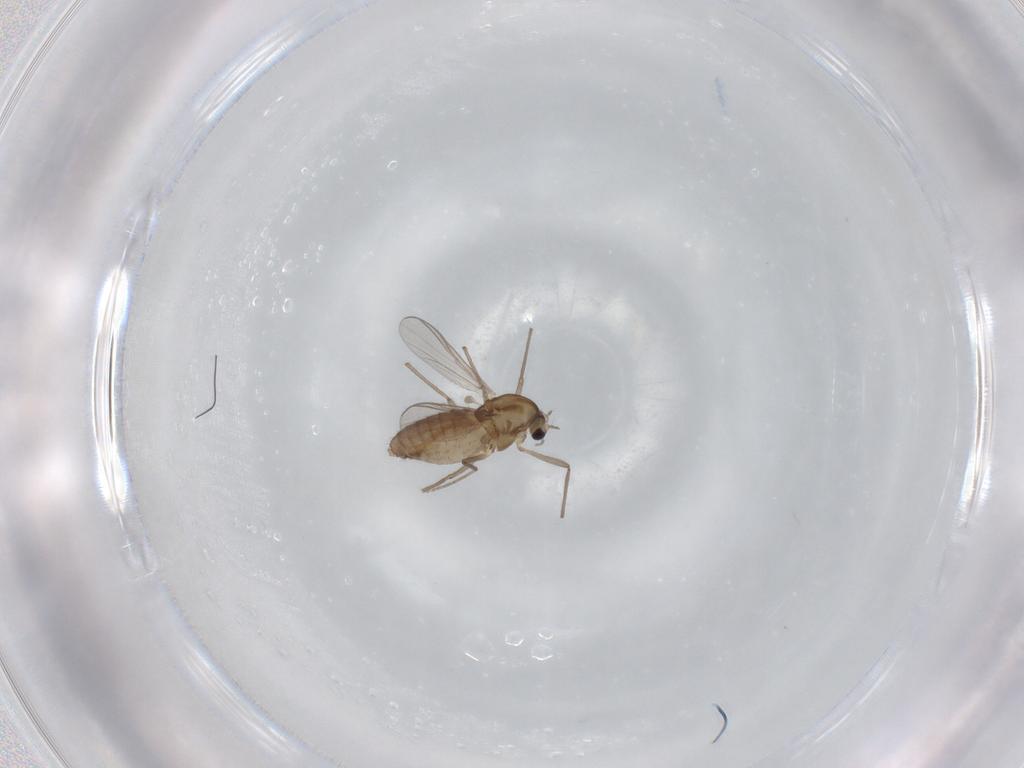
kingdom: Animalia
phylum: Arthropoda
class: Insecta
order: Diptera
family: Chironomidae
